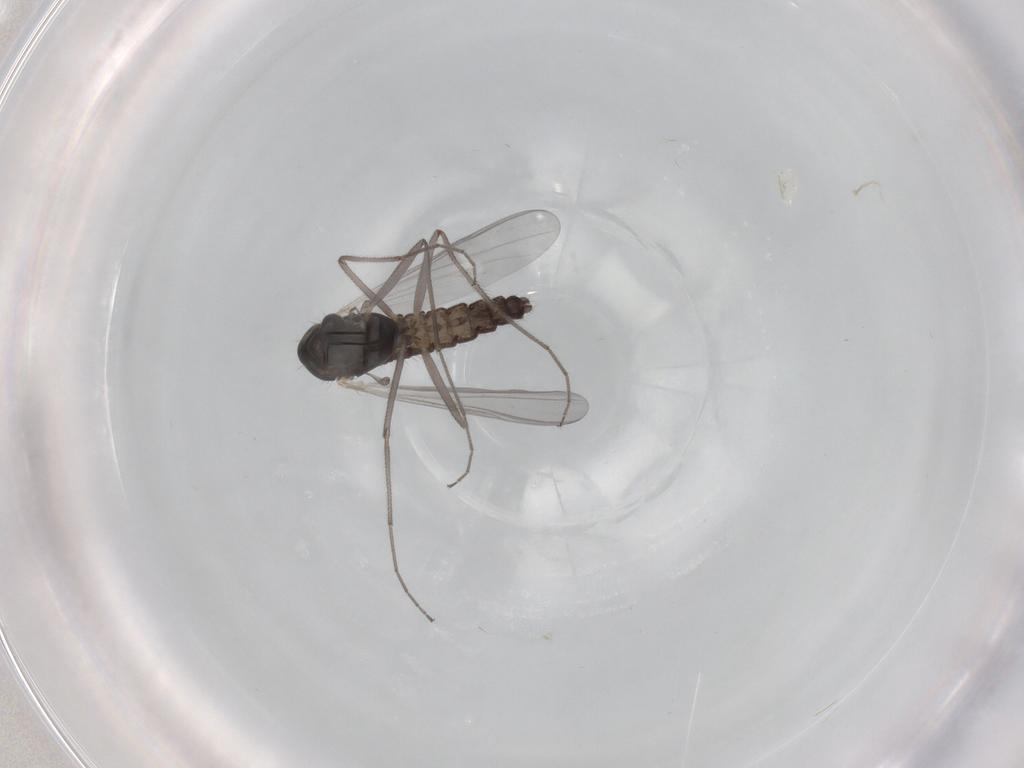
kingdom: Animalia
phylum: Arthropoda
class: Insecta
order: Diptera
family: Chironomidae
